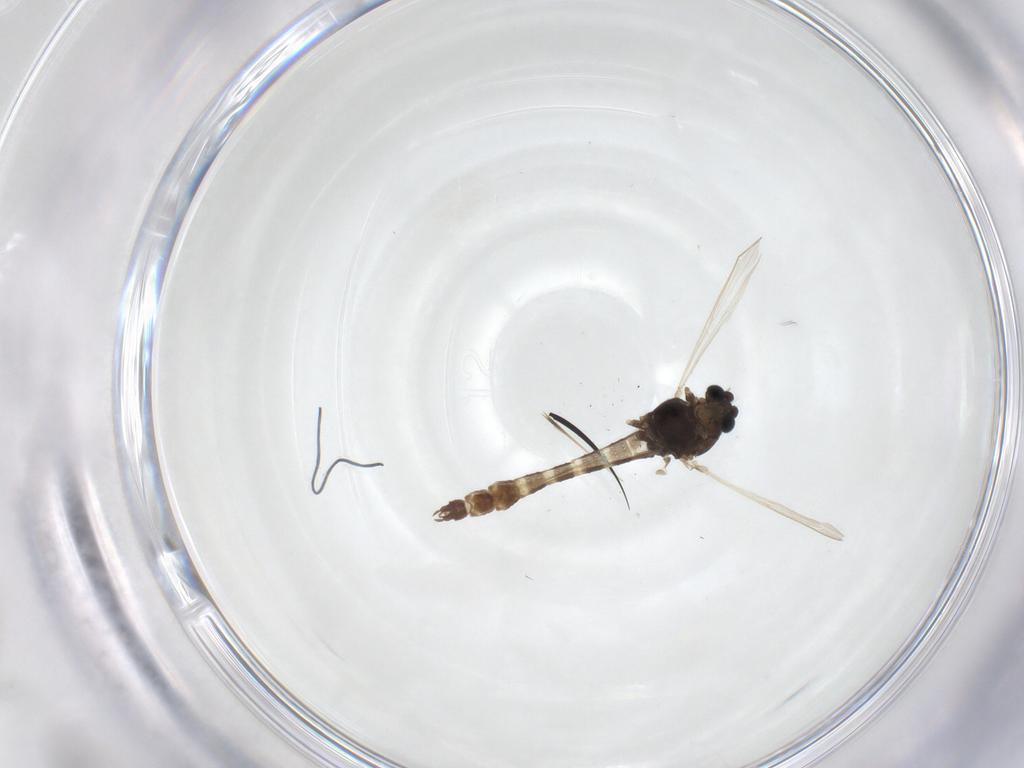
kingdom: Animalia
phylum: Arthropoda
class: Insecta
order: Diptera
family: Chironomidae
